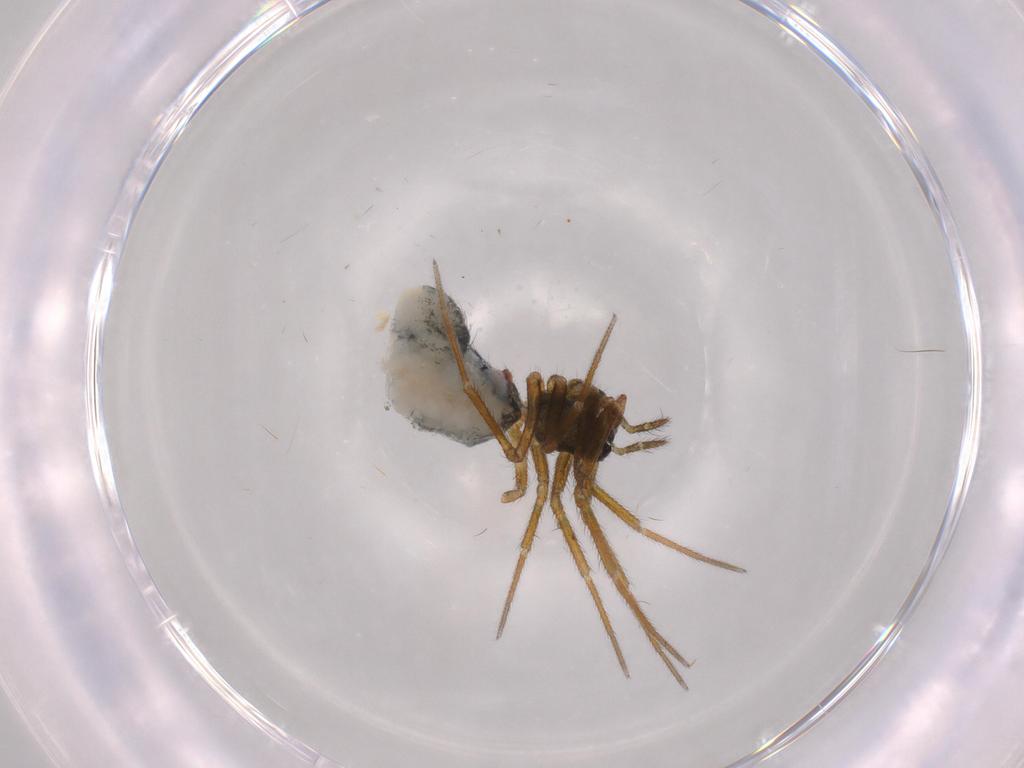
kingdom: Animalia
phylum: Arthropoda
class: Arachnida
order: Araneae
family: Linyphiidae
